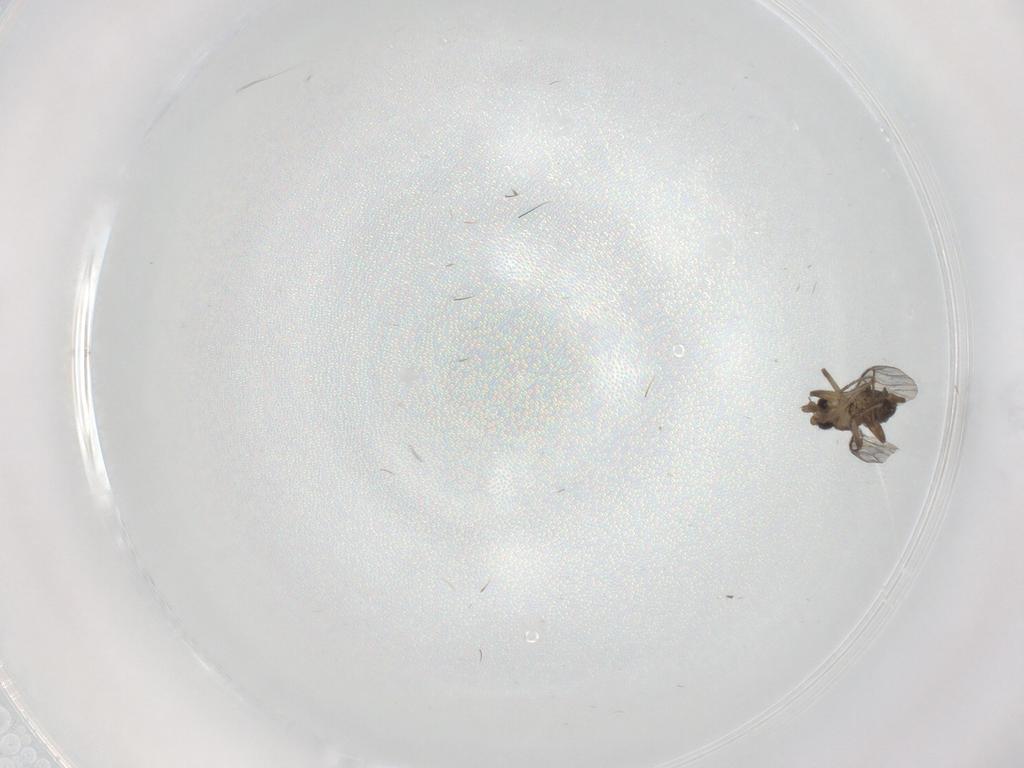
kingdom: Animalia
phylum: Arthropoda
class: Insecta
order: Diptera
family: Phoridae
